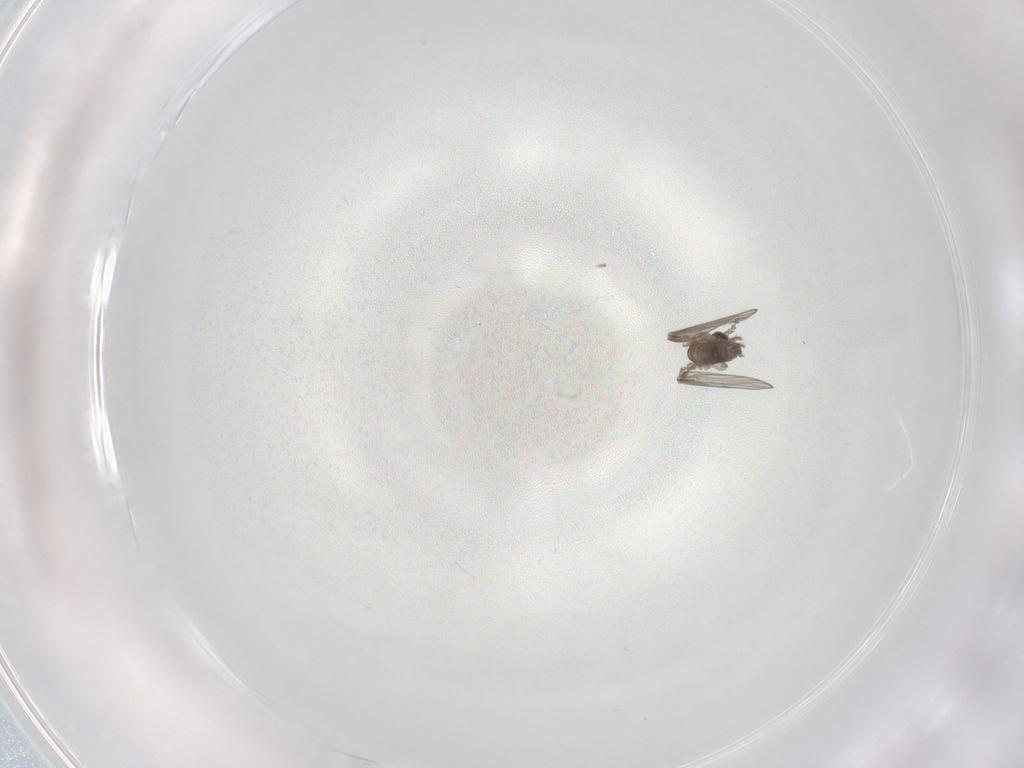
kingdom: Animalia
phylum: Arthropoda
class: Insecta
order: Diptera
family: Psychodidae
